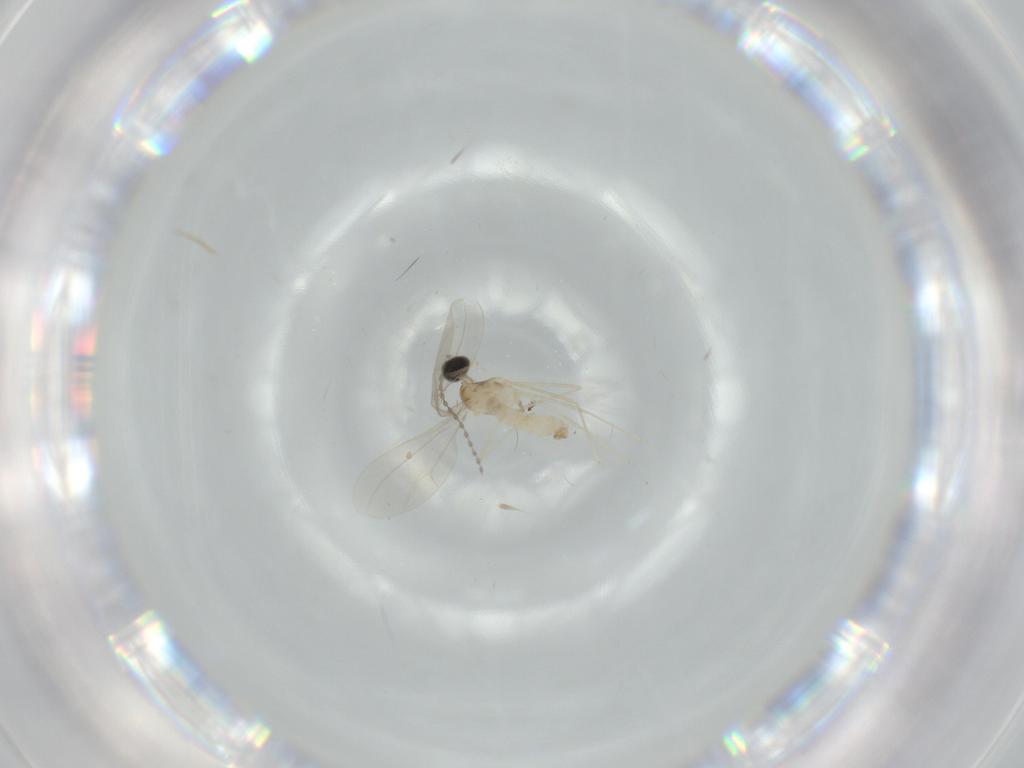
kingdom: Animalia
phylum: Arthropoda
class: Insecta
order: Diptera
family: Cecidomyiidae
